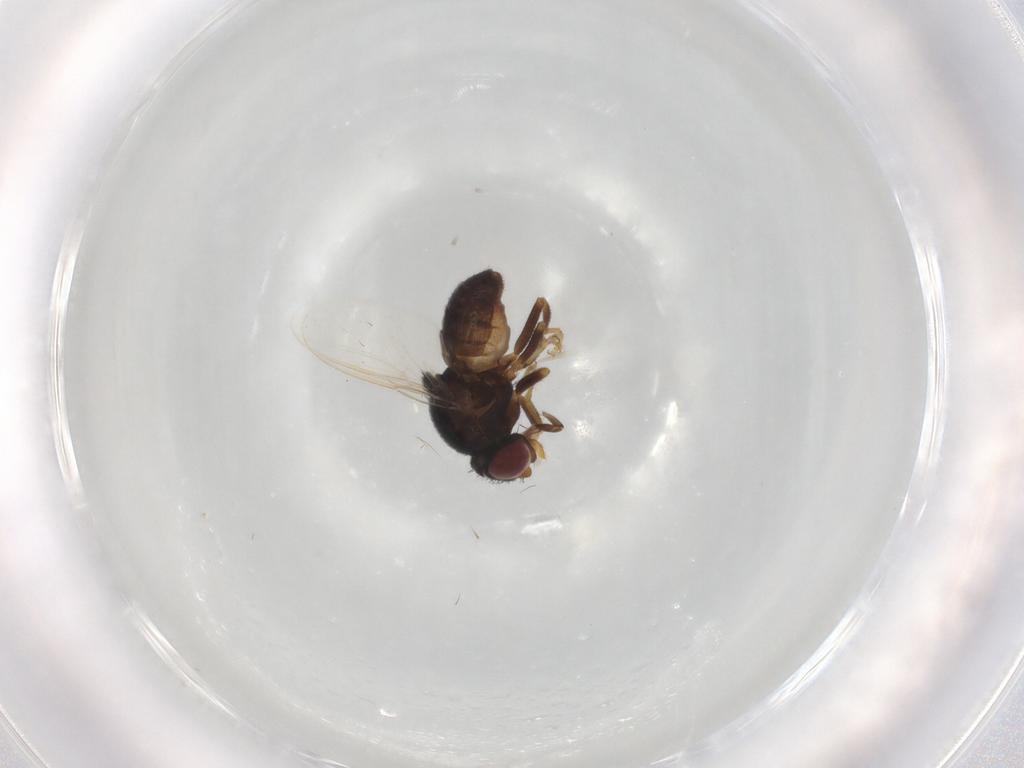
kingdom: Animalia
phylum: Arthropoda
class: Insecta
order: Diptera
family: Chloropidae
